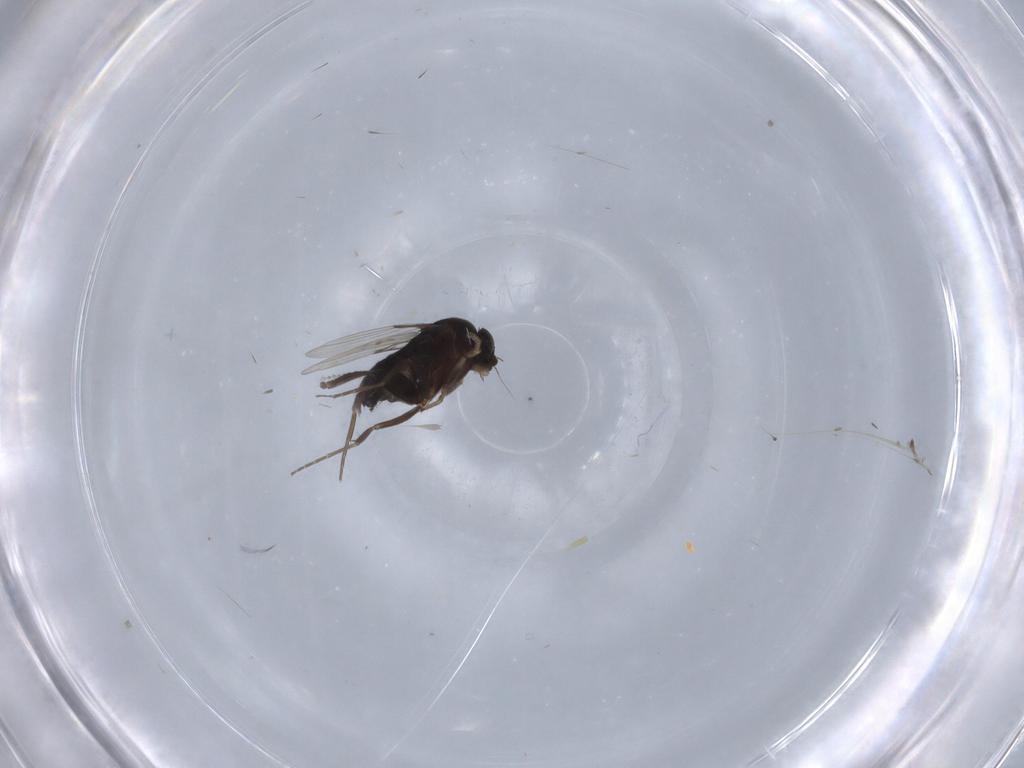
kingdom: Animalia
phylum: Arthropoda
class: Insecta
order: Diptera
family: Phoridae
